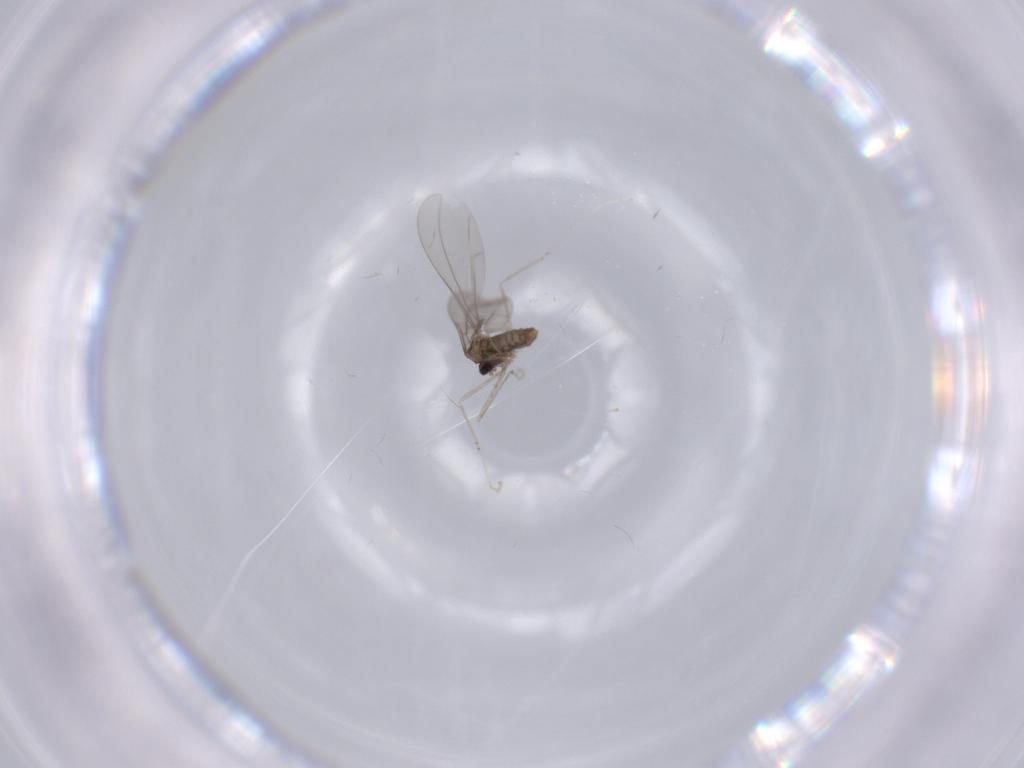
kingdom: Animalia
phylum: Arthropoda
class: Insecta
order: Diptera
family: Cecidomyiidae
